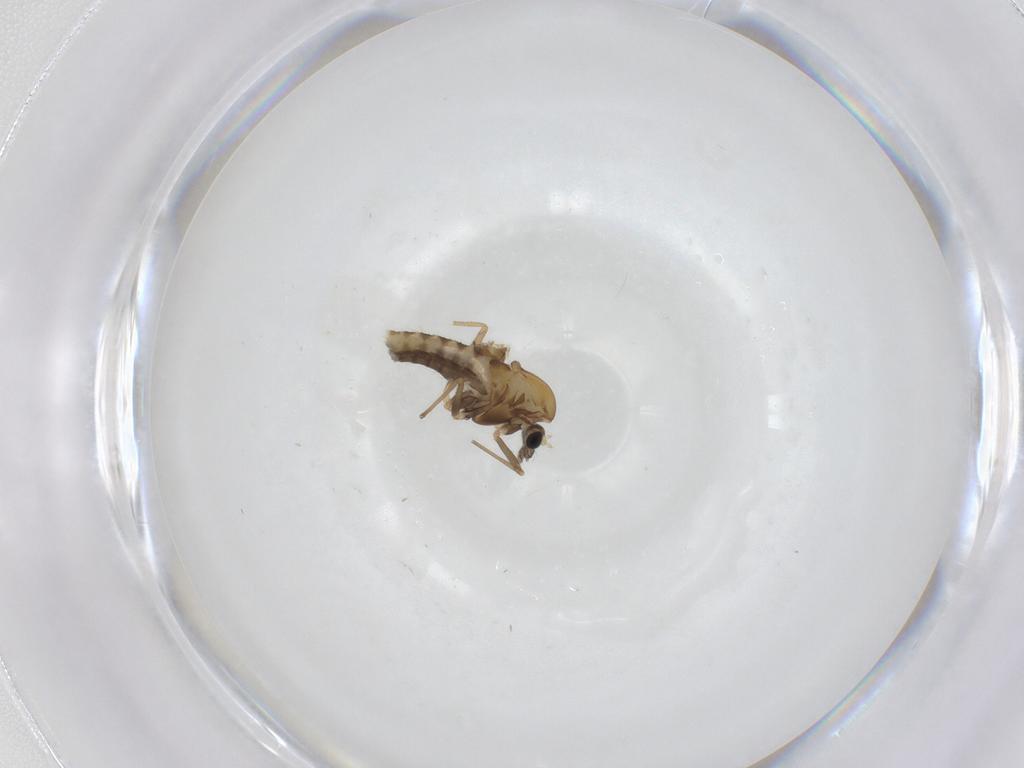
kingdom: Animalia
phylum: Arthropoda
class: Insecta
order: Diptera
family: Chironomidae
